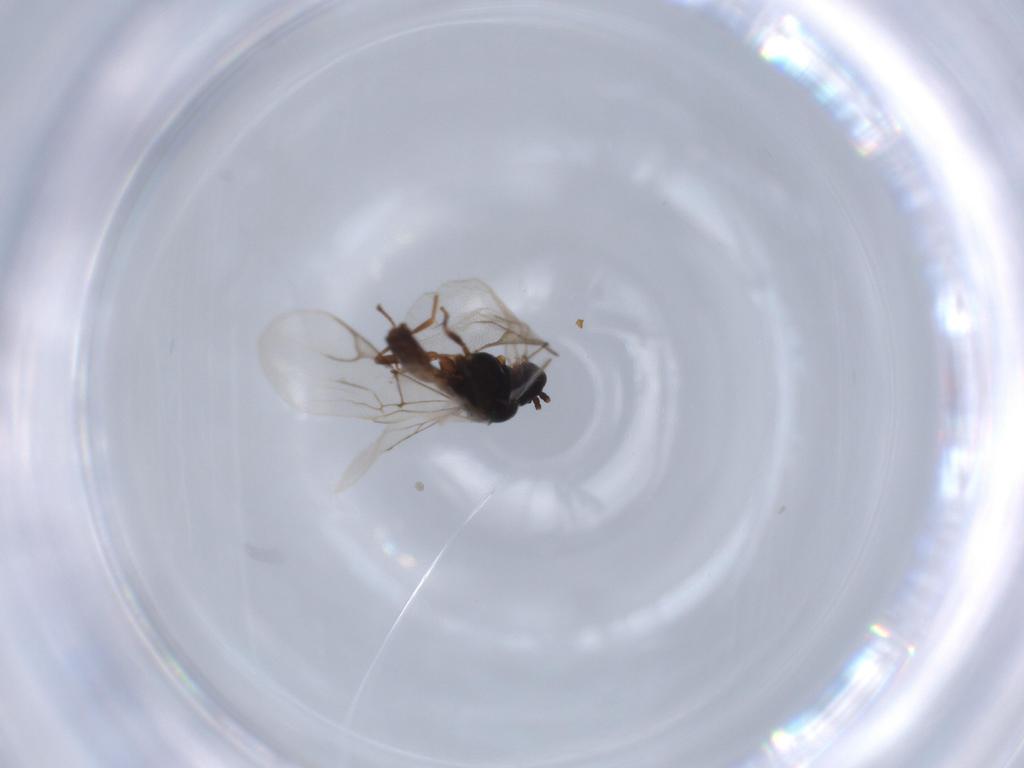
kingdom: Animalia
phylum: Arthropoda
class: Insecta
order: Hymenoptera
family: Braconidae
